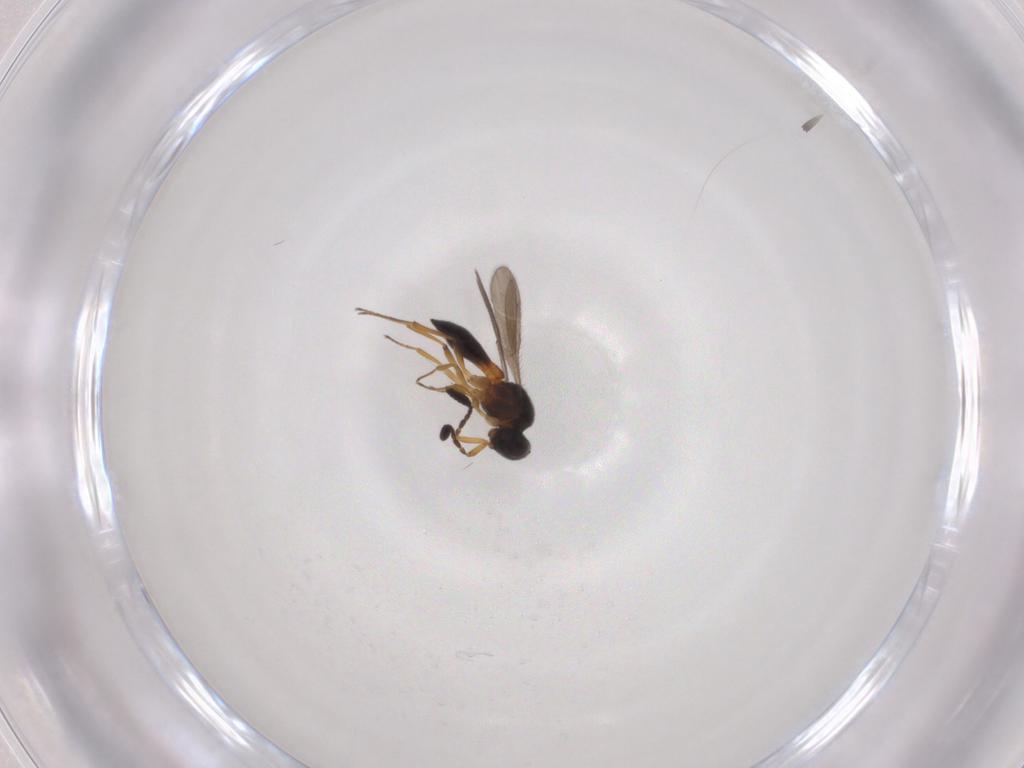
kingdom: Animalia
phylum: Arthropoda
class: Insecta
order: Hymenoptera
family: Scelionidae
